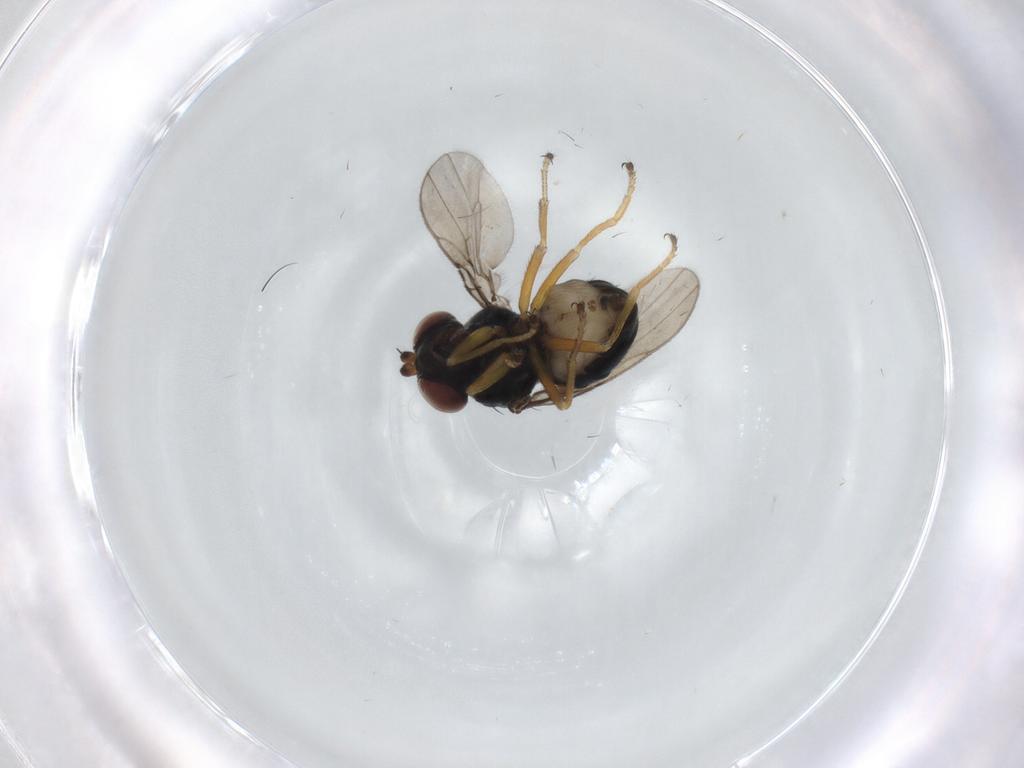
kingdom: Animalia
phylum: Arthropoda
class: Insecta
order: Diptera
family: Ephydridae
